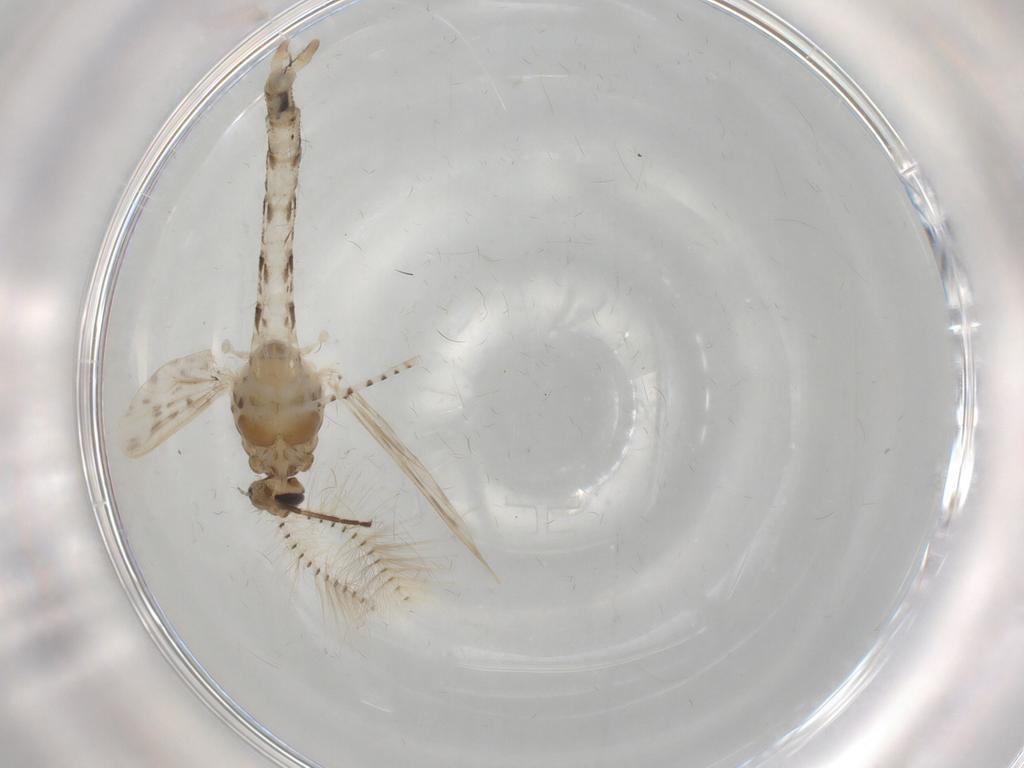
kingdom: Animalia
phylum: Arthropoda
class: Insecta
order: Diptera
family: Chaoboridae
